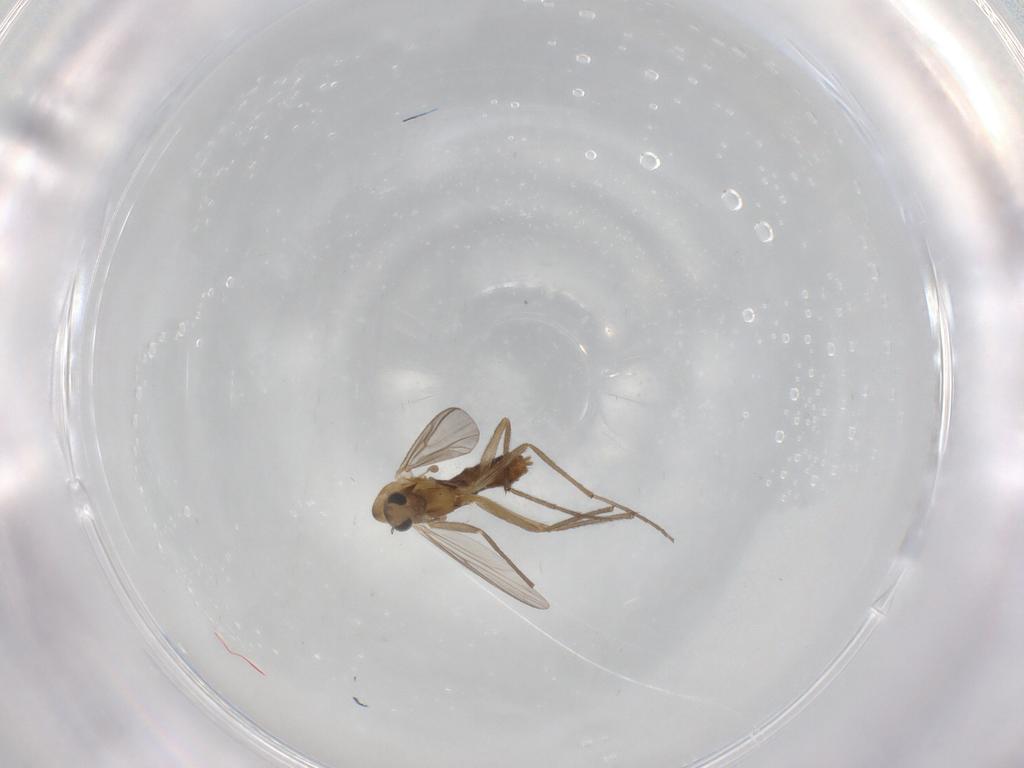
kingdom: Animalia
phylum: Arthropoda
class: Insecta
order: Diptera
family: Chironomidae
